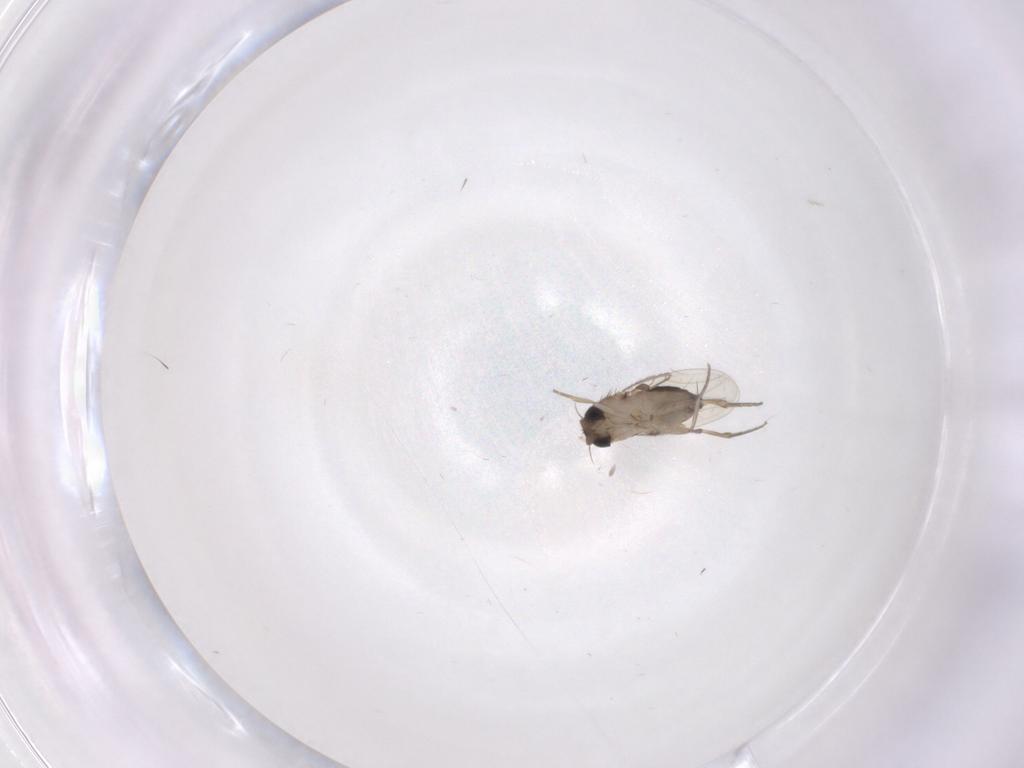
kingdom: Animalia
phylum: Arthropoda
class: Insecta
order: Diptera
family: Phoridae
